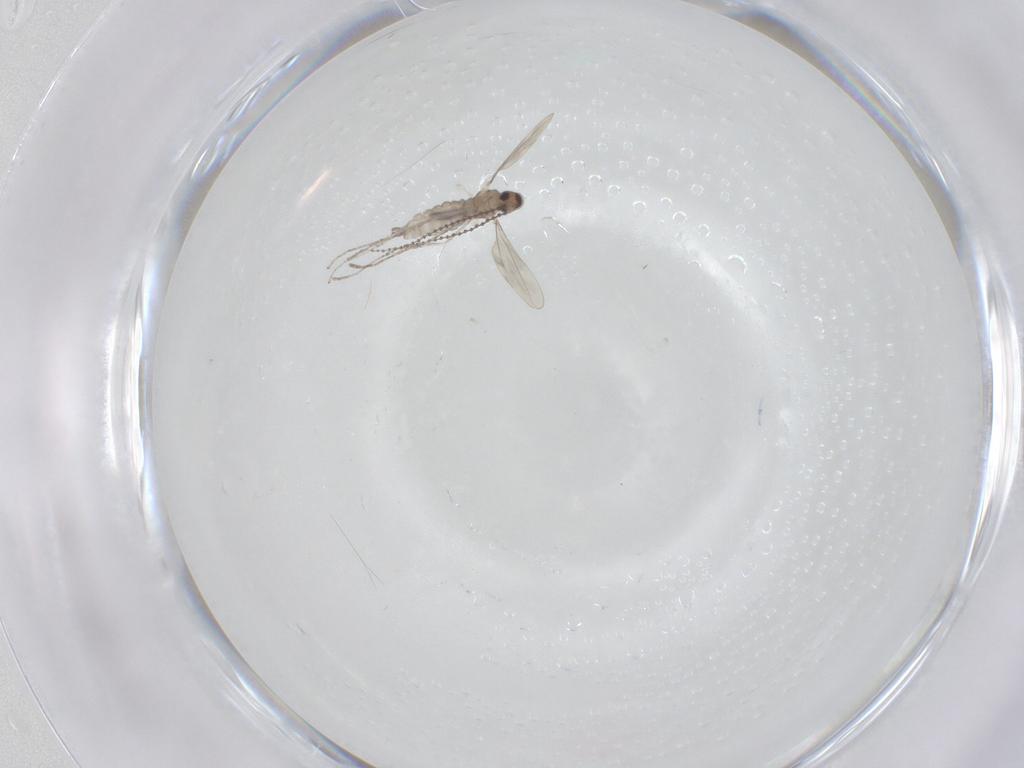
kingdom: Animalia
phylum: Arthropoda
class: Insecta
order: Diptera
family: Cecidomyiidae
